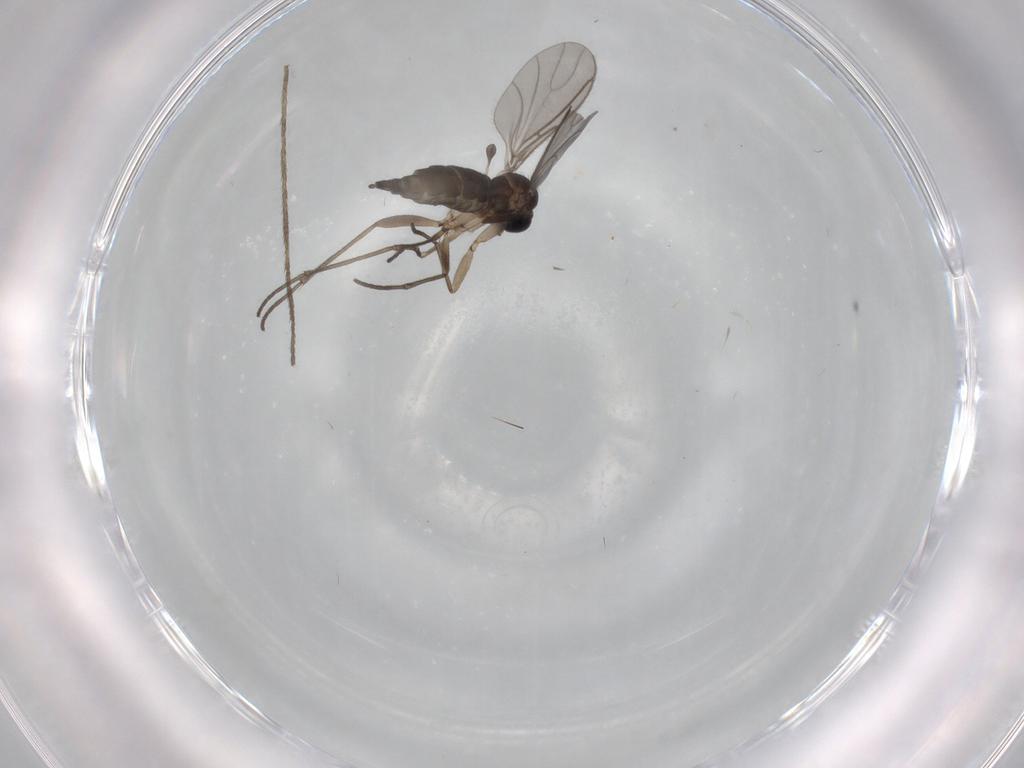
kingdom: Animalia
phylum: Arthropoda
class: Insecta
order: Diptera
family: Sciaridae
